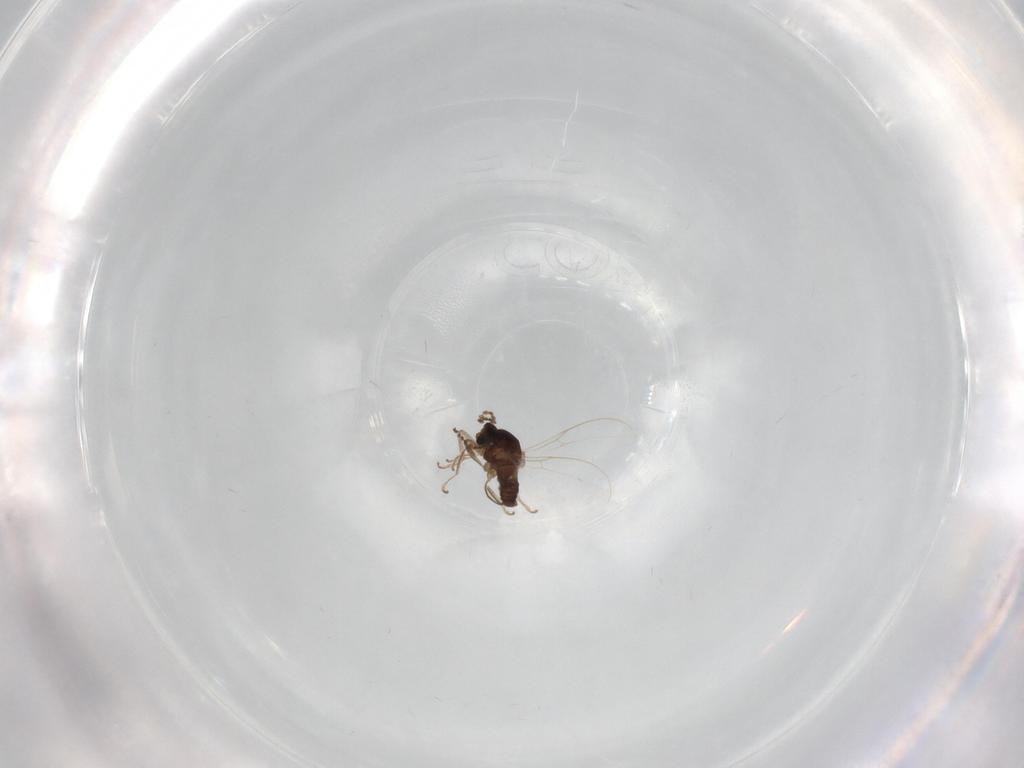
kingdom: Animalia
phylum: Arthropoda
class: Insecta
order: Diptera
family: Cecidomyiidae
